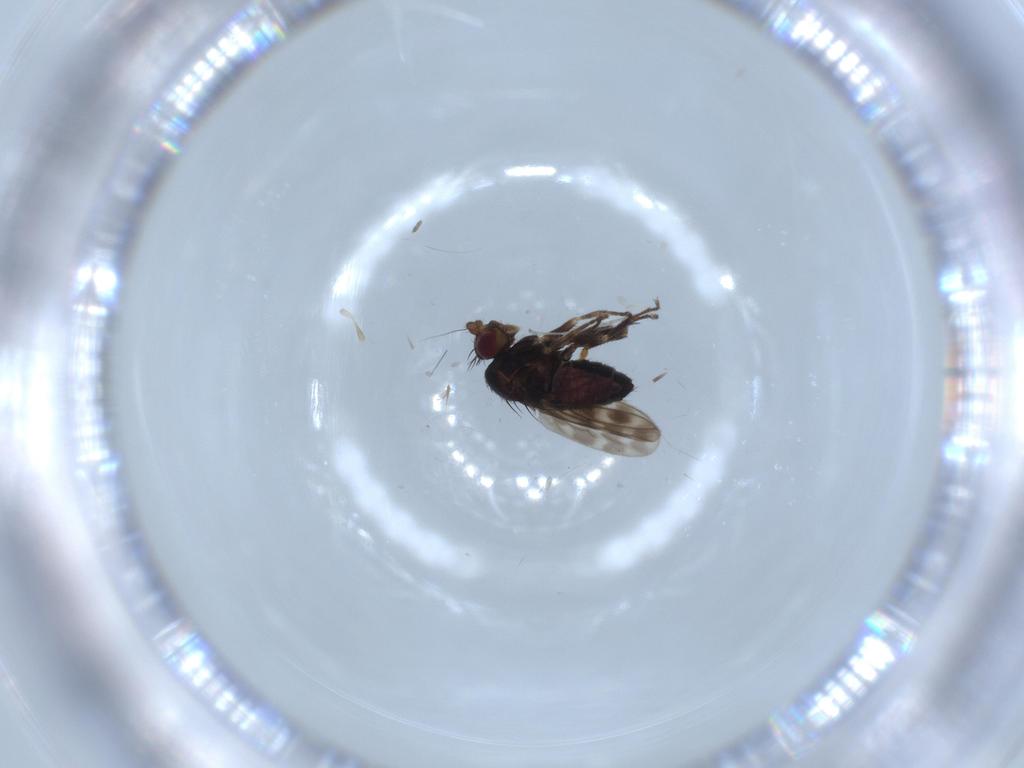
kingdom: Animalia
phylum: Arthropoda
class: Insecta
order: Diptera
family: Sphaeroceridae
